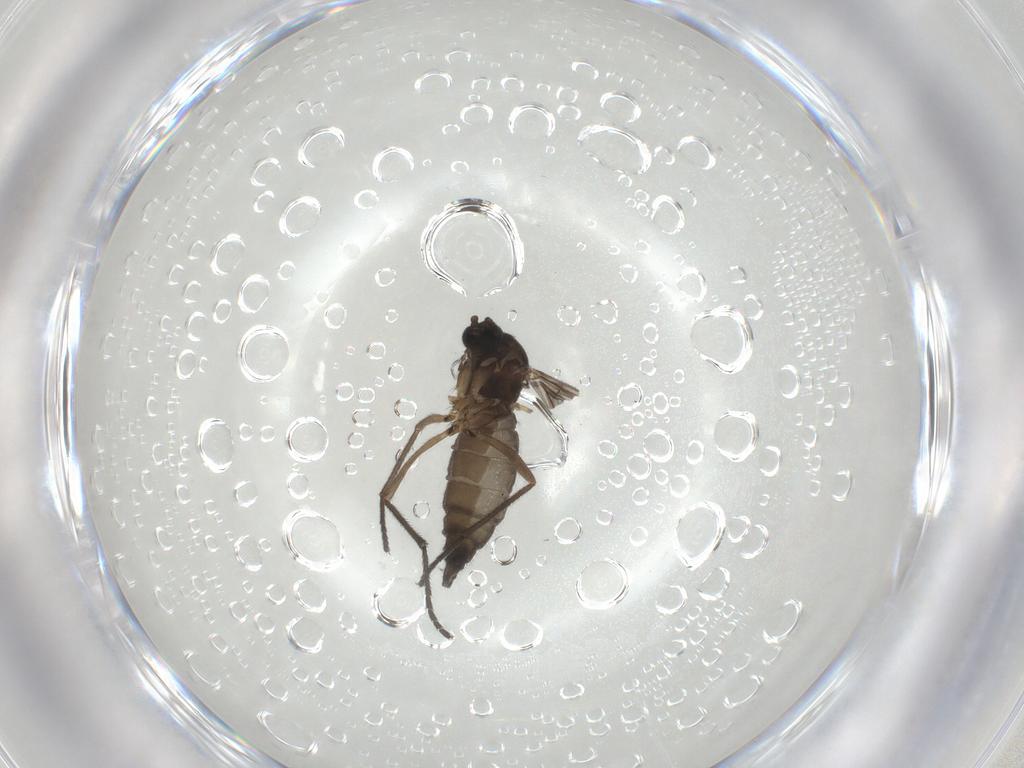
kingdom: Animalia
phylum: Arthropoda
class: Insecta
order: Diptera
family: Sciaridae
